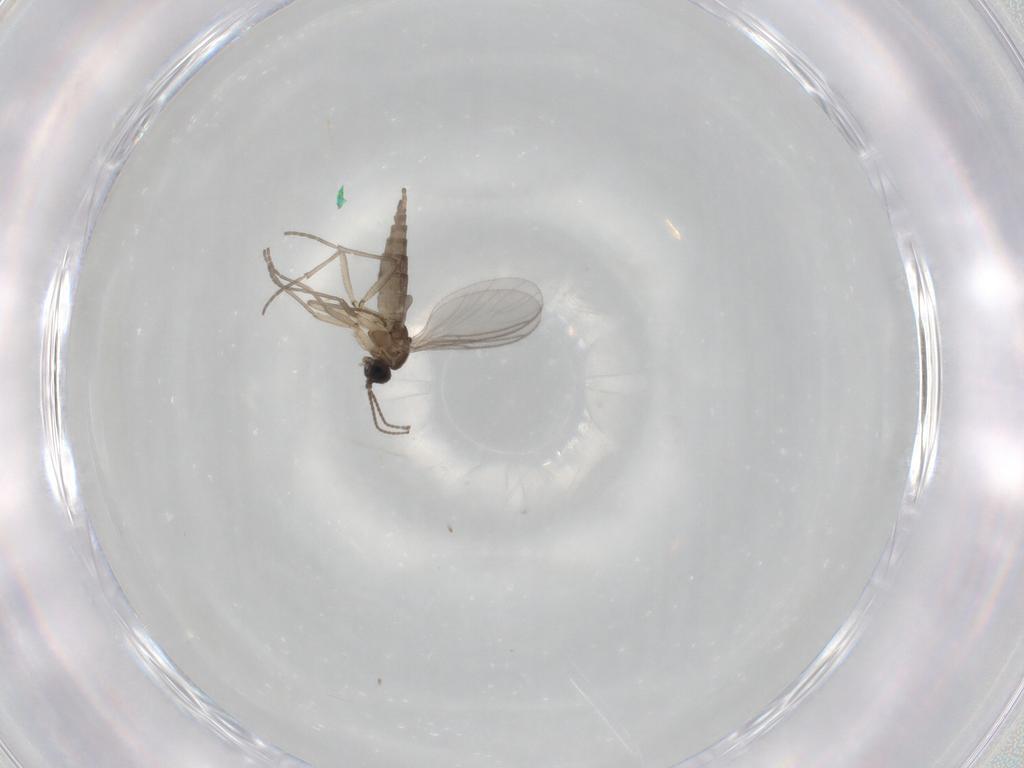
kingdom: Animalia
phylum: Arthropoda
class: Insecta
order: Diptera
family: Sciaridae
